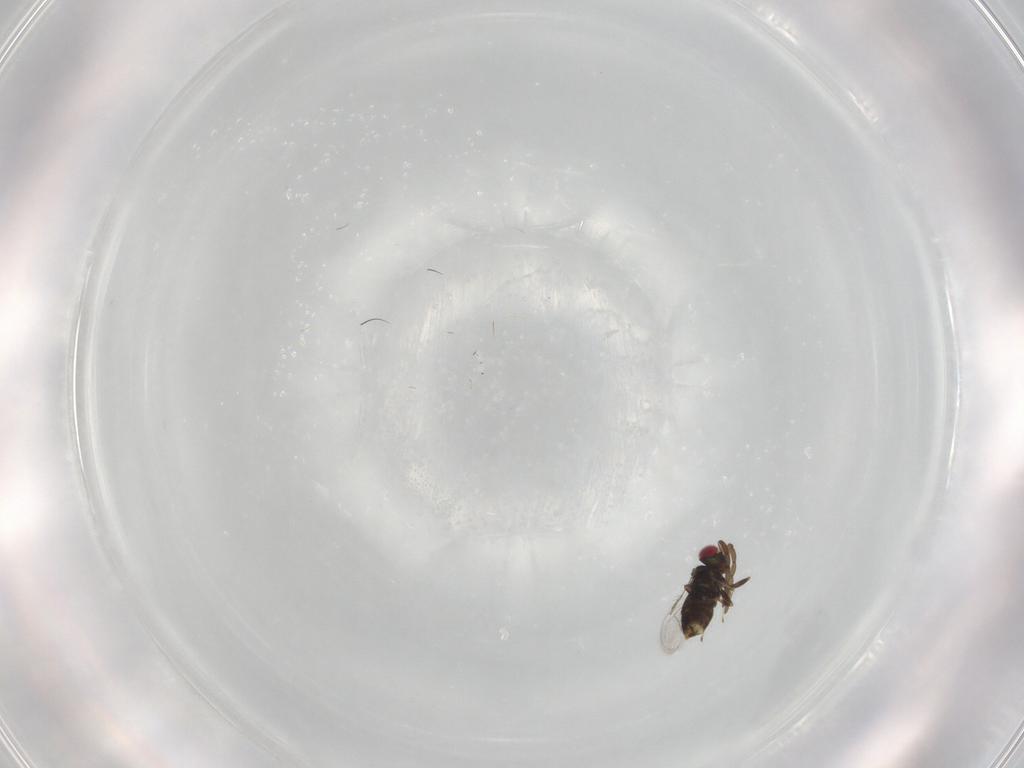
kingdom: Animalia
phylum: Arthropoda
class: Insecta
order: Hymenoptera
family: Azotidae
